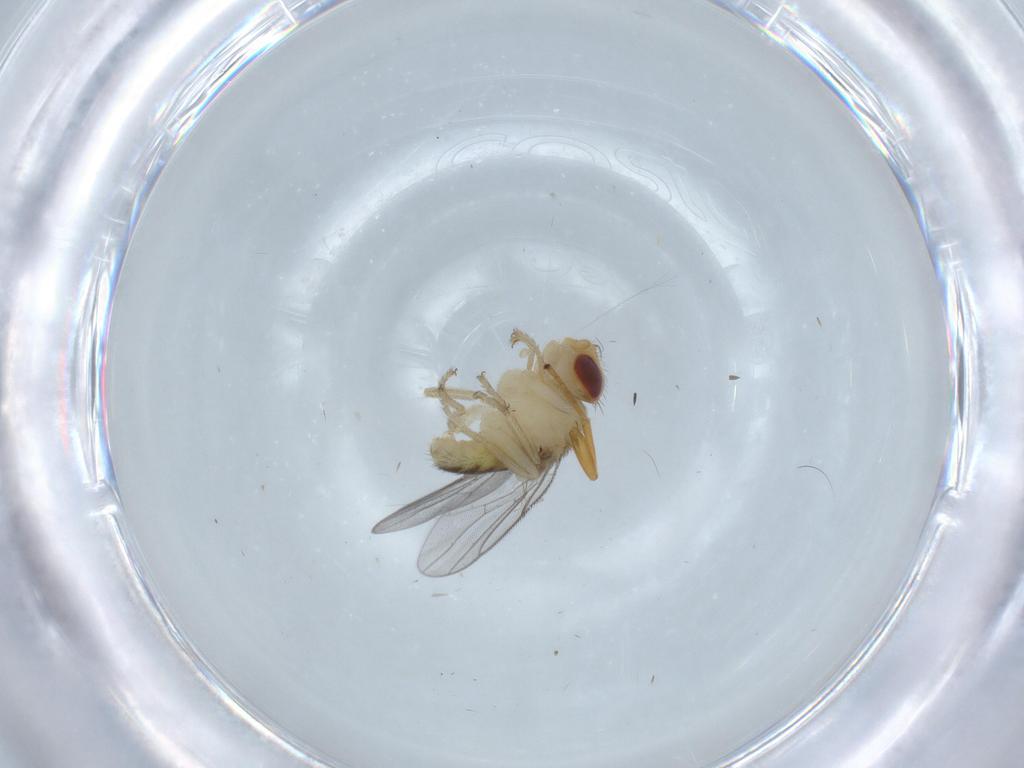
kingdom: Animalia
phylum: Arthropoda
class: Insecta
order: Diptera
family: Chloropidae
